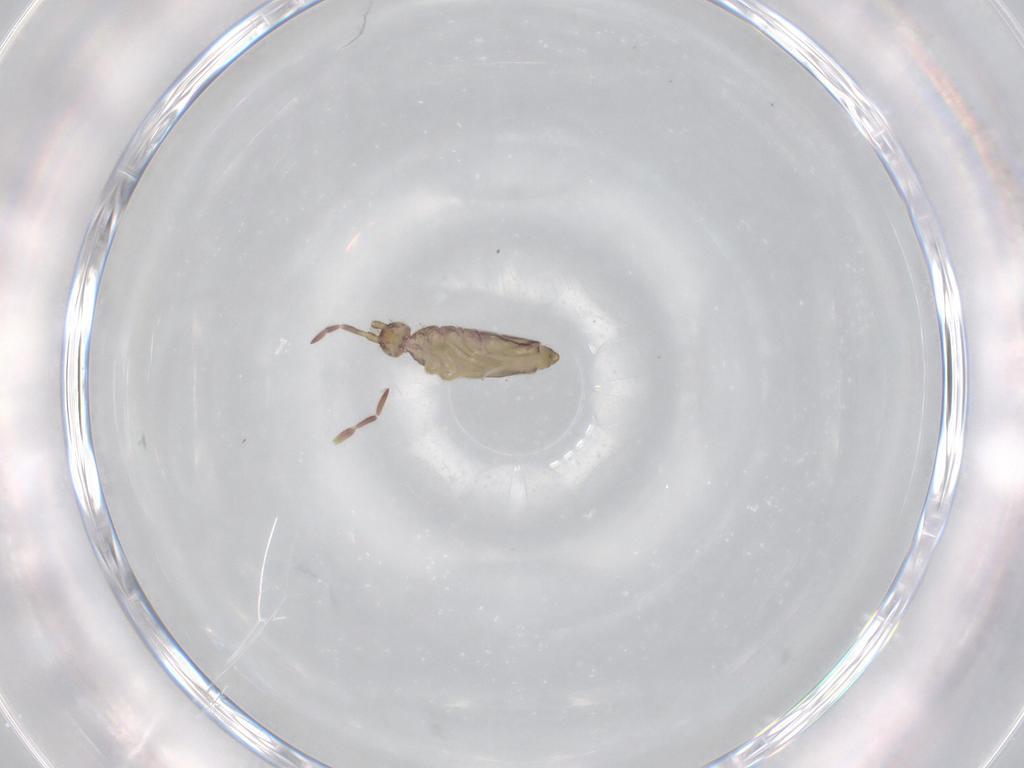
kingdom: Animalia
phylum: Arthropoda
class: Collembola
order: Entomobryomorpha
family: Entomobryidae
